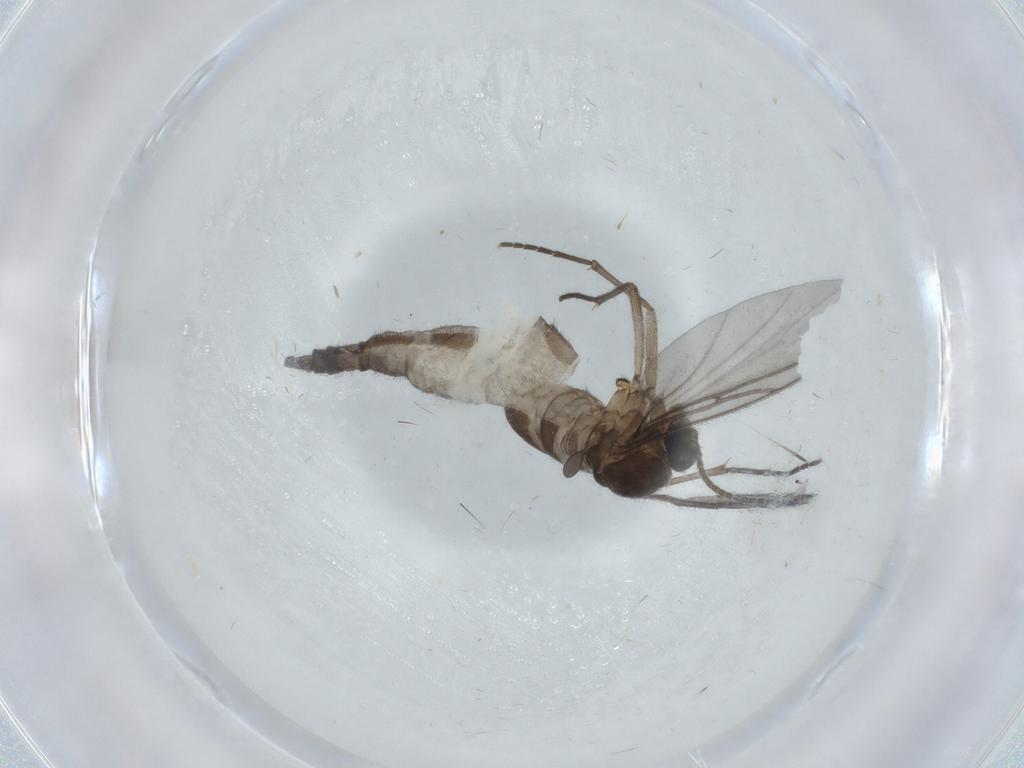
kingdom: Animalia
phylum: Arthropoda
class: Insecta
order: Diptera
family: Sciaridae
